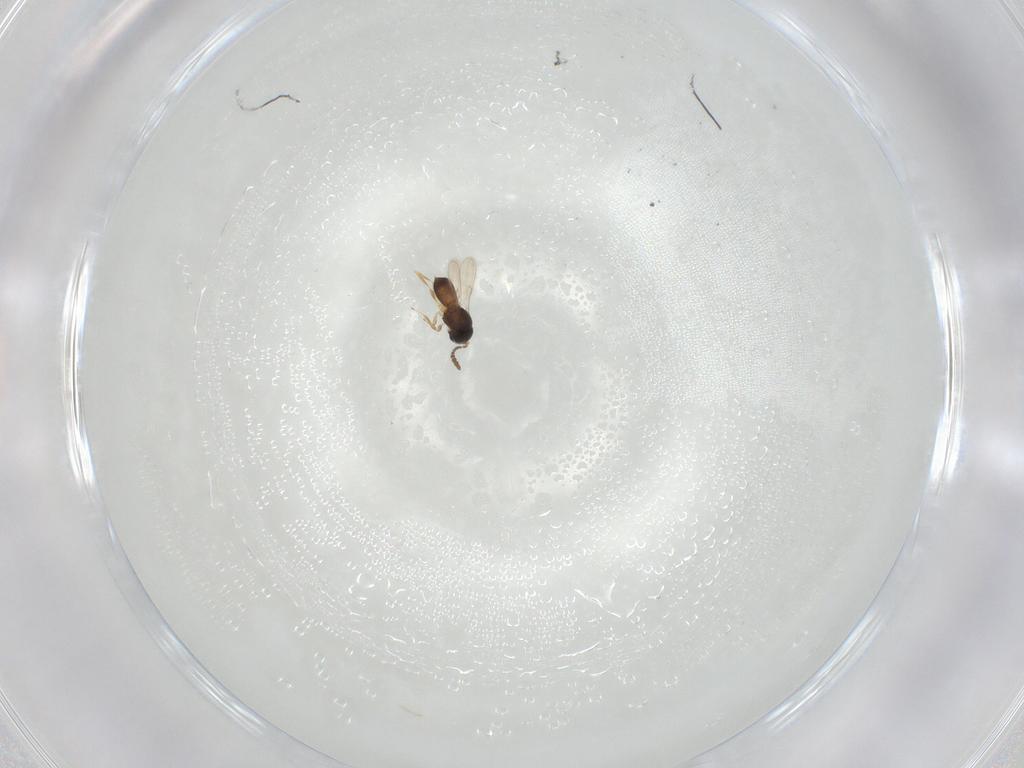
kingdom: Animalia
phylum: Arthropoda
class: Insecta
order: Hymenoptera
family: Scelionidae
